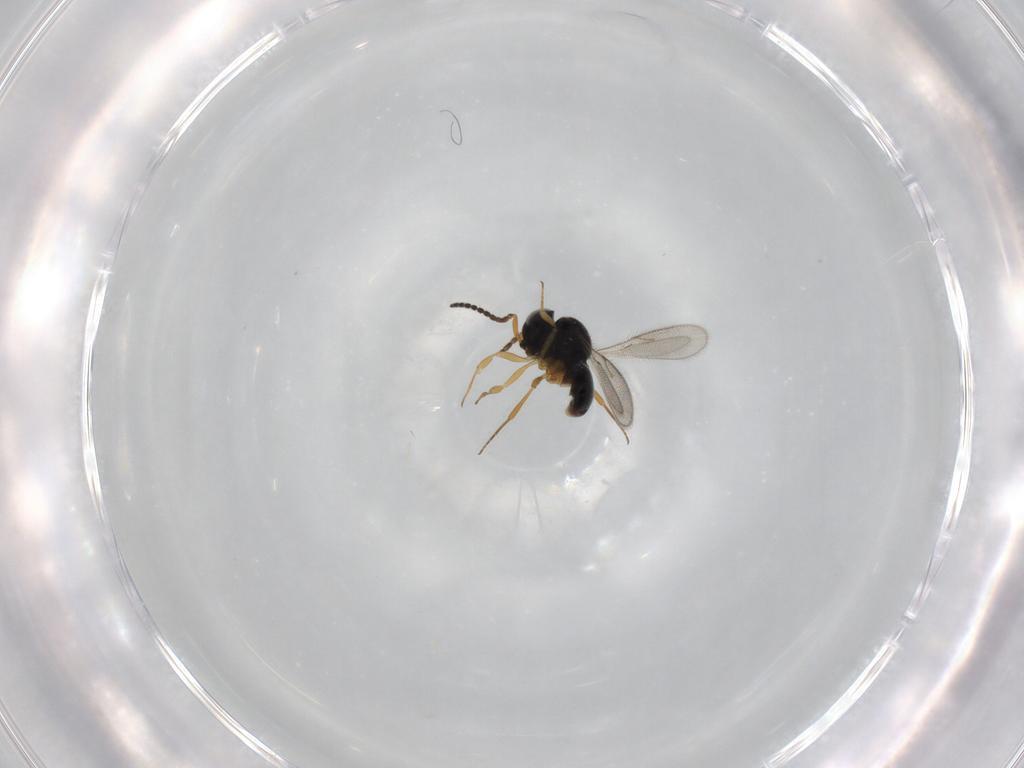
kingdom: Animalia
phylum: Arthropoda
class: Insecta
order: Hymenoptera
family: Scelionidae
